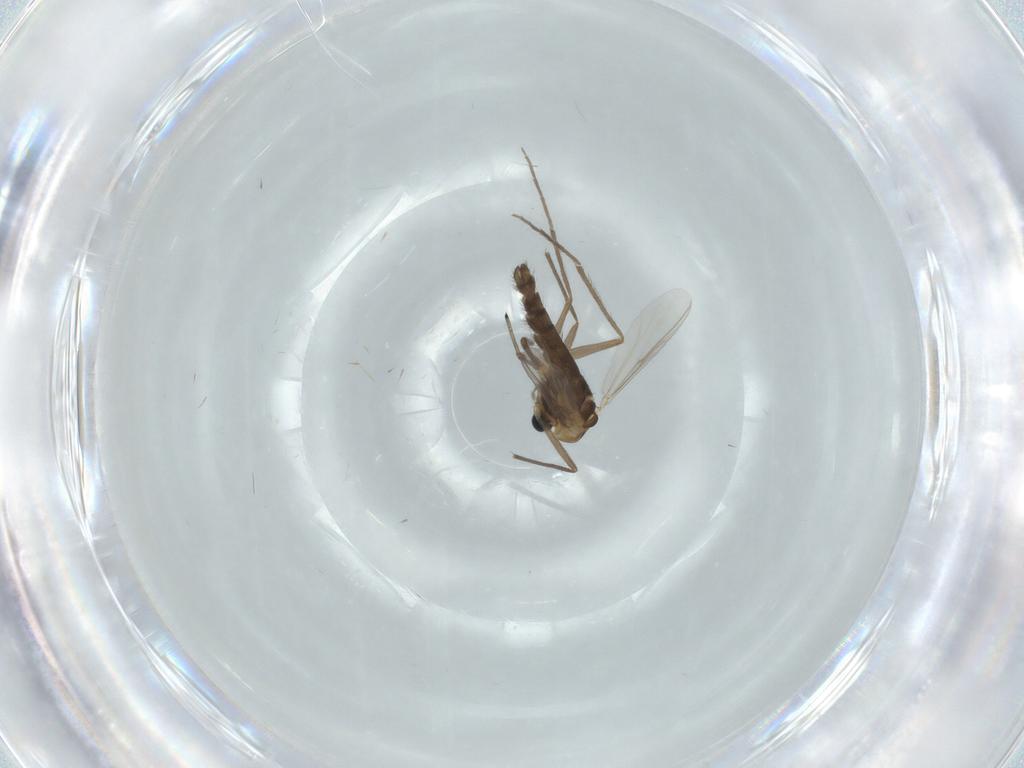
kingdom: Animalia
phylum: Arthropoda
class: Insecta
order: Diptera
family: Chironomidae
